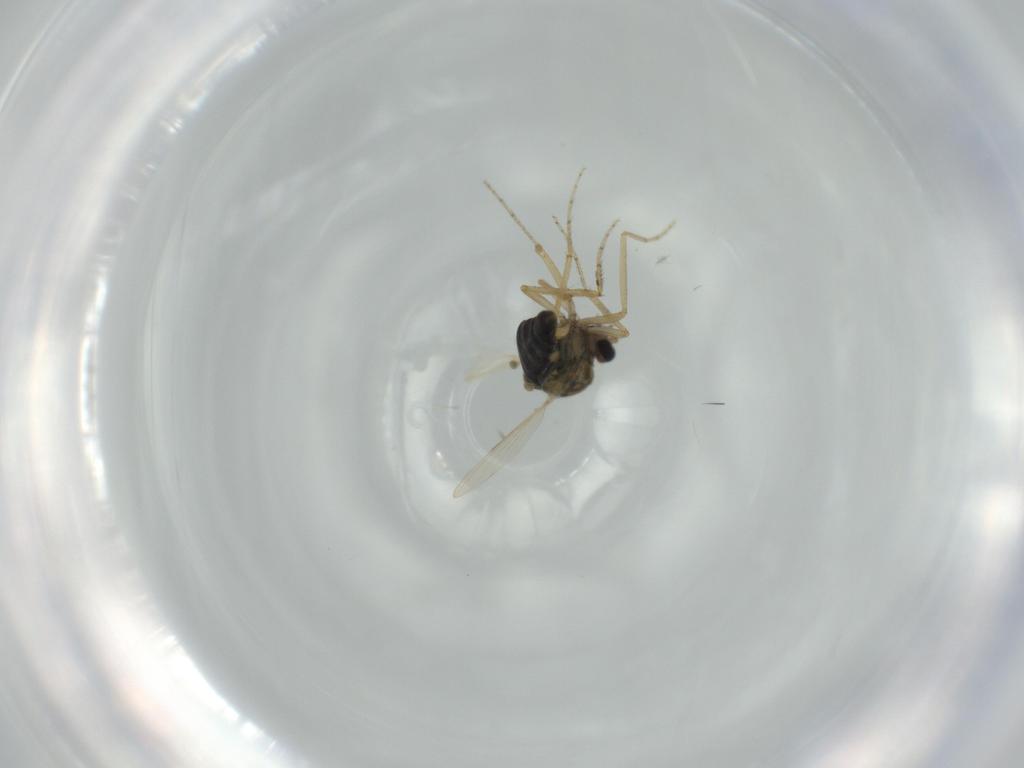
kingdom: Animalia
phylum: Arthropoda
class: Insecta
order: Diptera
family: Ceratopogonidae
